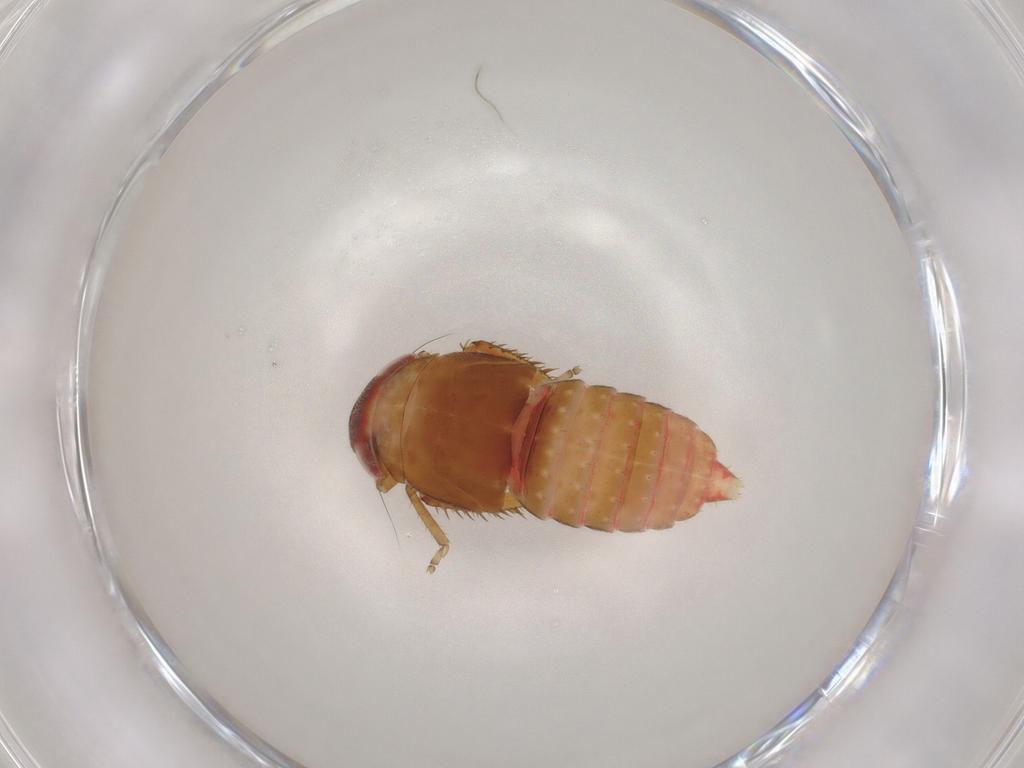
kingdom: Animalia
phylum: Arthropoda
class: Insecta
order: Hemiptera
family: Cicadellidae
